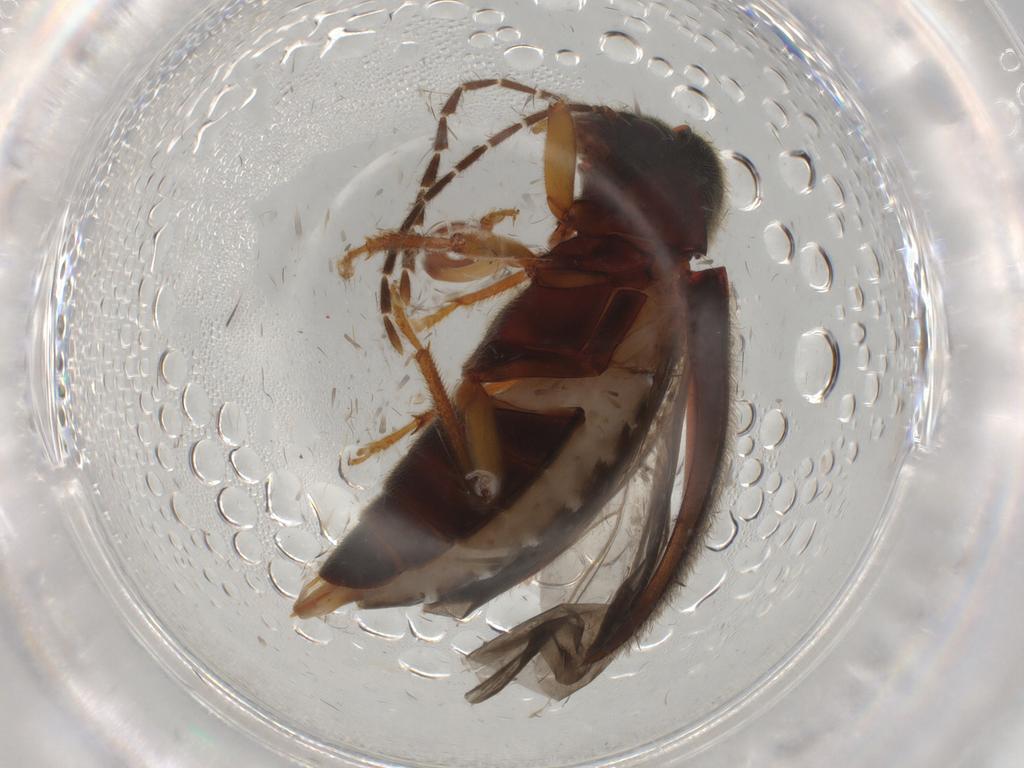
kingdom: Animalia
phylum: Arthropoda
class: Insecta
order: Coleoptera
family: Ptilodactylidae
